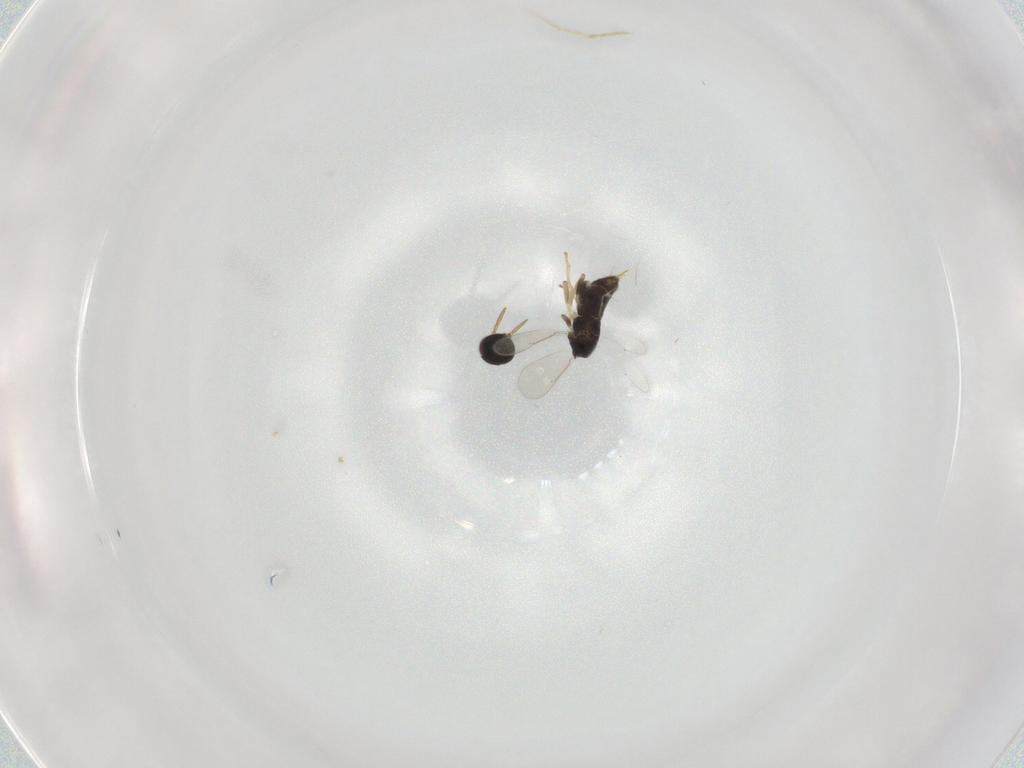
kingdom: Animalia
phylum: Arthropoda
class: Insecta
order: Hymenoptera
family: Aphelinidae
